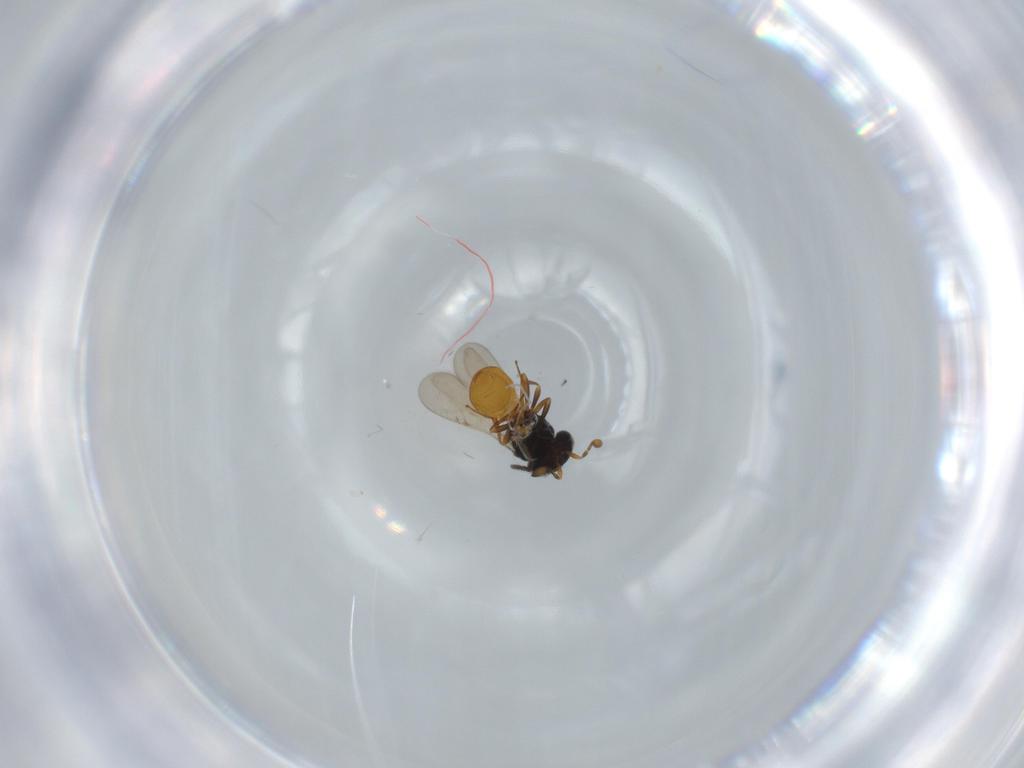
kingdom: Animalia
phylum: Arthropoda
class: Insecta
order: Hymenoptera
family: Scelionidae
